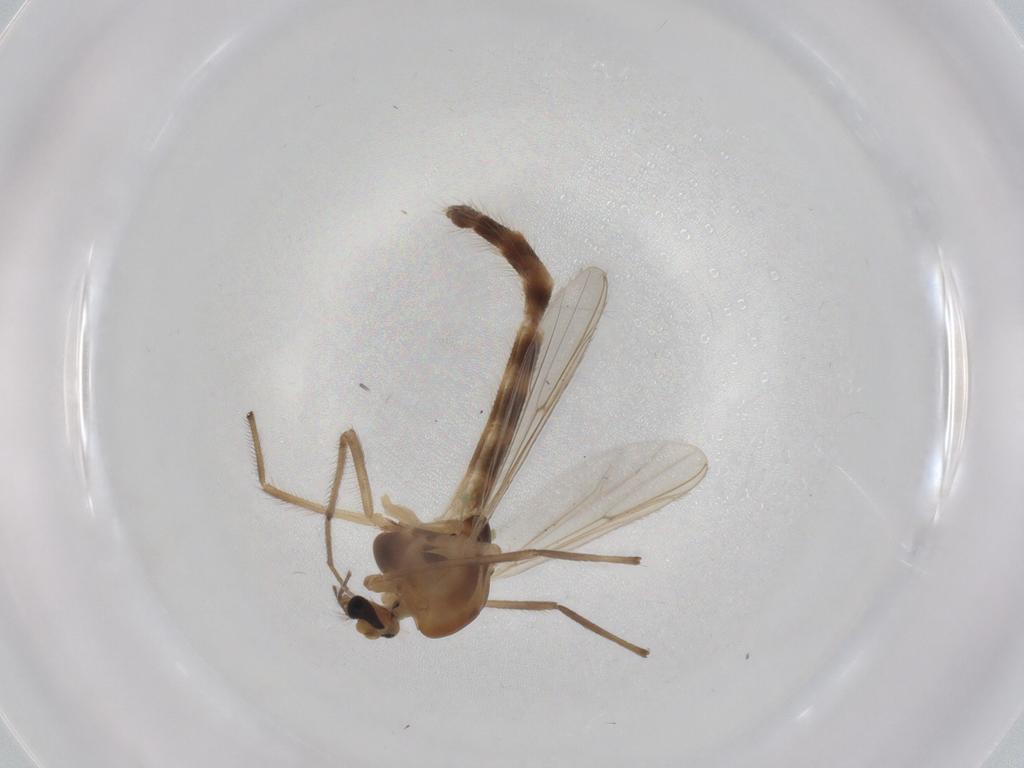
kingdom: Animalia
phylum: Arthropoda
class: Insecta
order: Diptera
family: Chironomidae
